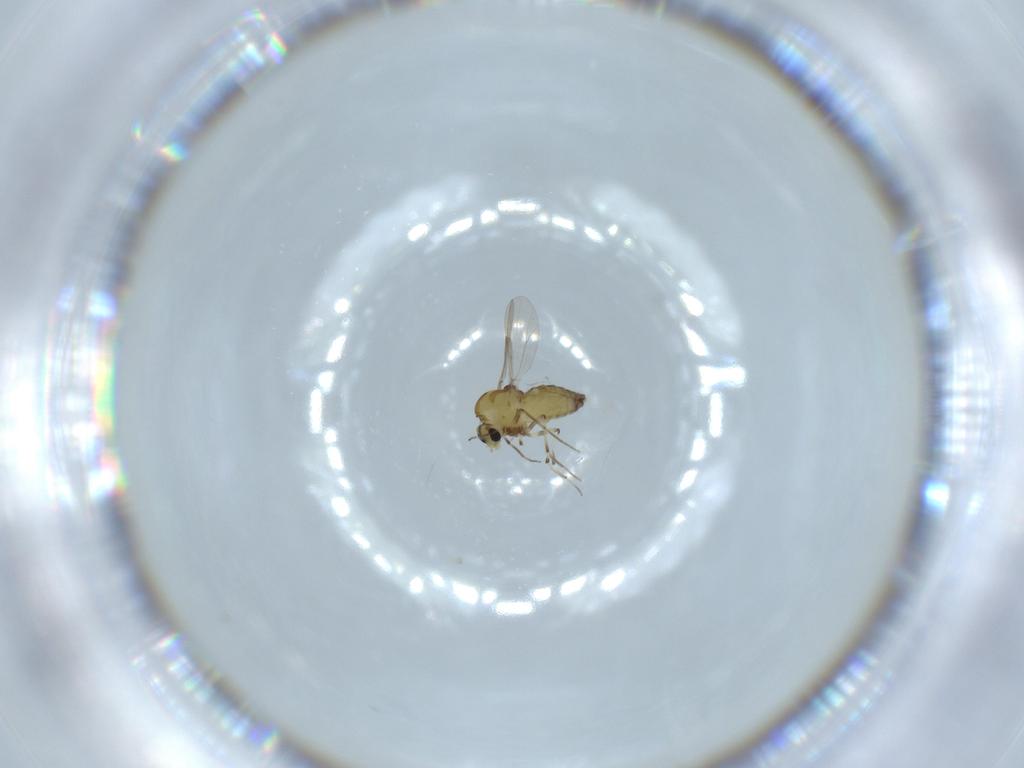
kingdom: Animalia
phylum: Arthropoda
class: Insecta
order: Diptera
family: Chironomidae
